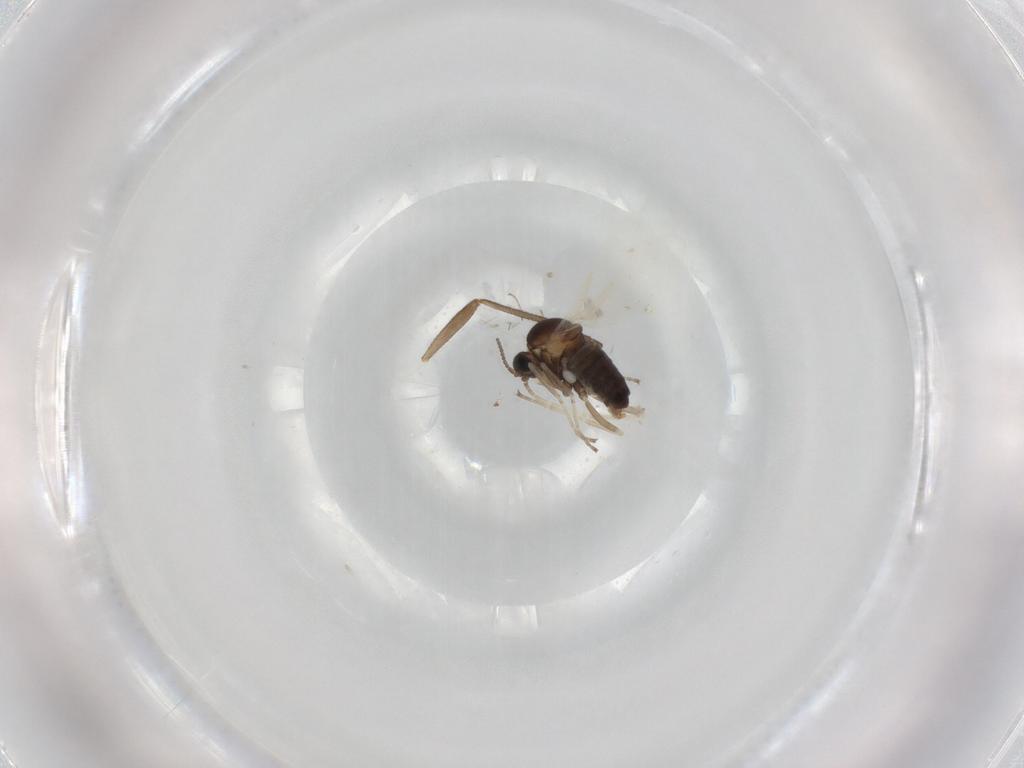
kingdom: Animalia
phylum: Arthropoda
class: Insecta
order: Diptera
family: Cecidomyiidae
